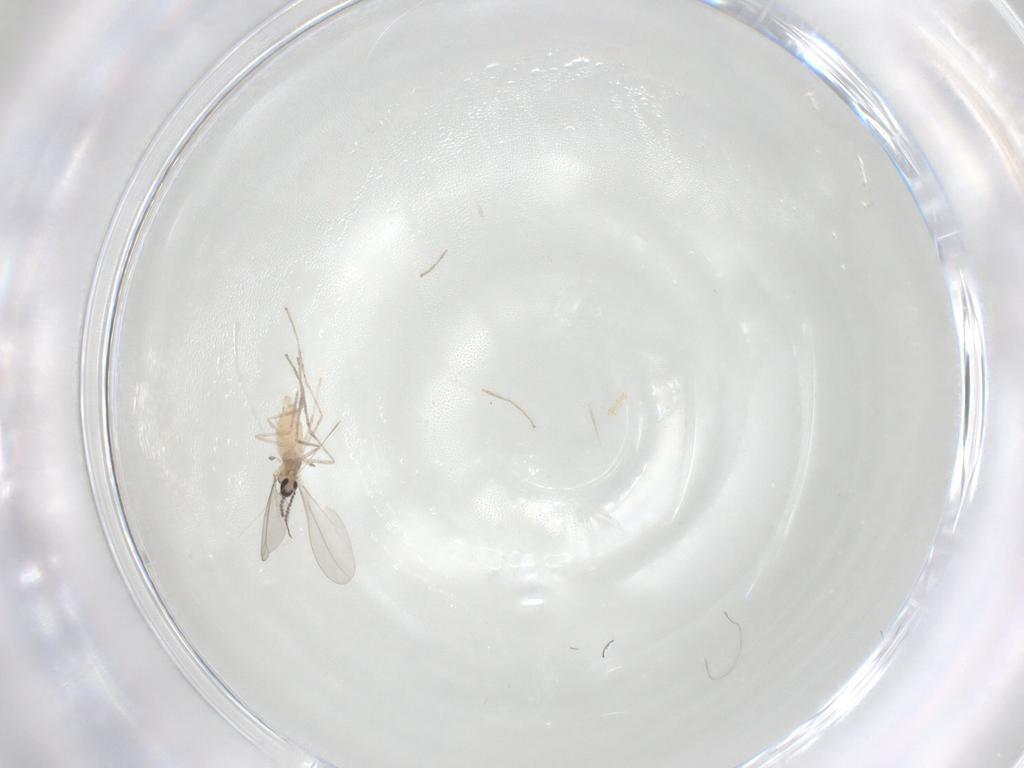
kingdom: Animalia
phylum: Arthropoda
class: Insecta
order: Diptera
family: Cecidomyiidae
